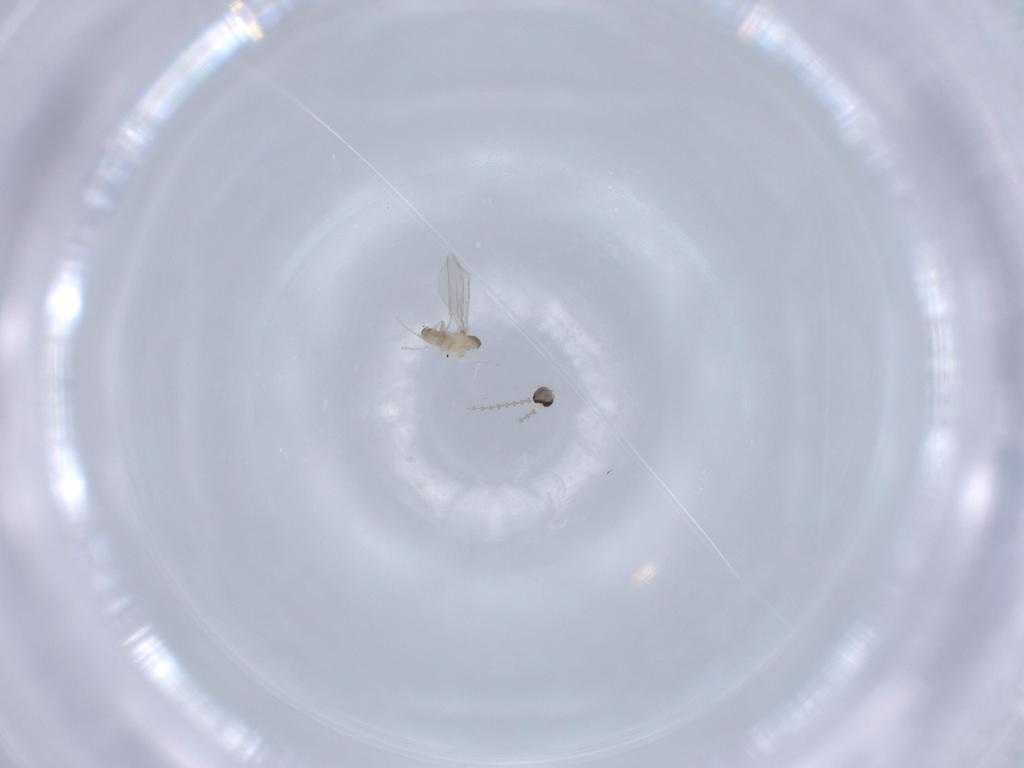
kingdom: Animalia
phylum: Arthropoda
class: Insecta
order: Diptera
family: Cecidomyiidae
